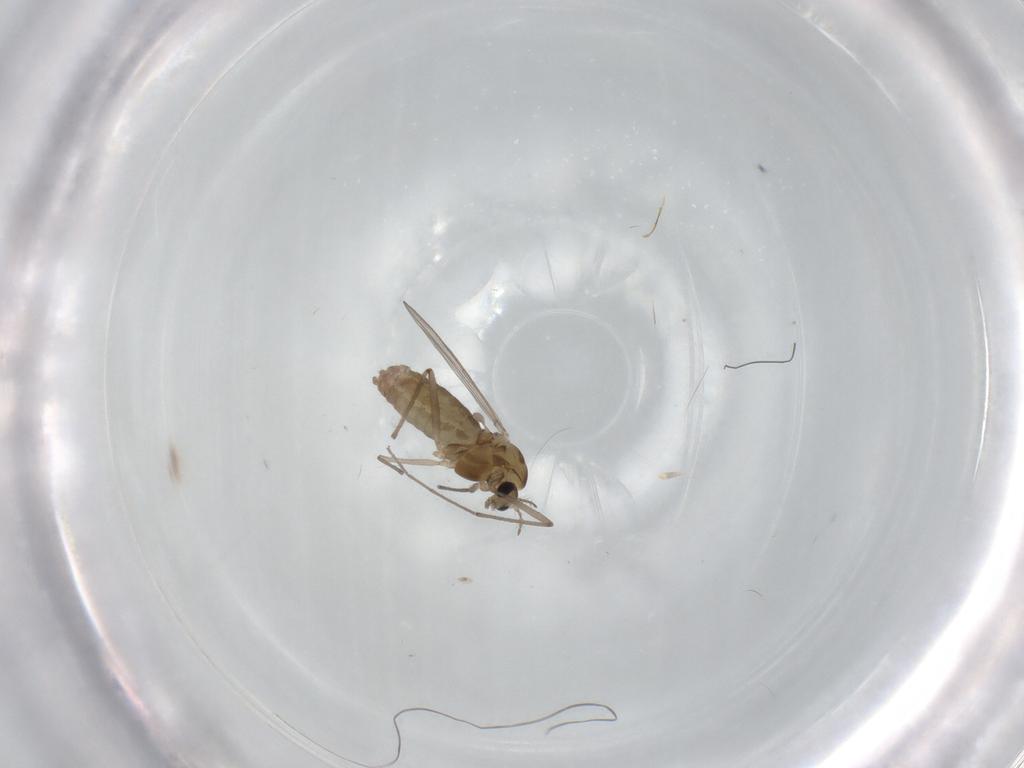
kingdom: Animalia
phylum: Arthropoda
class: Insecta
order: Diptera
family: Chironomidae
